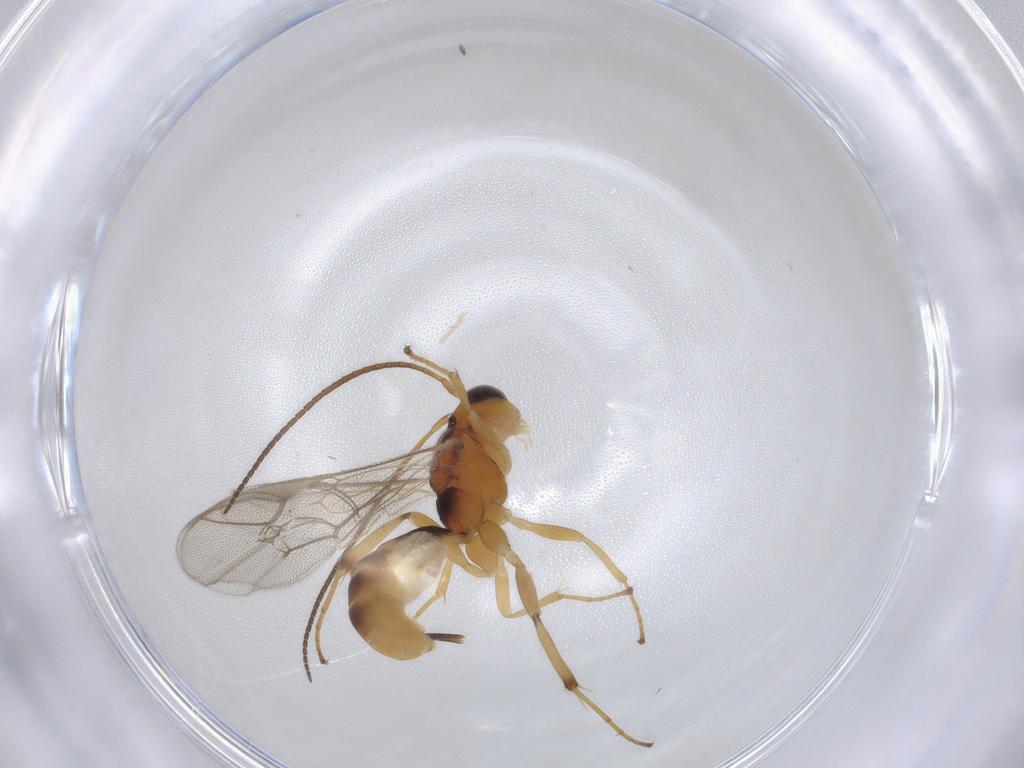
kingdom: Animalia
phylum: Arthropoda
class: Insecta
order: Hymenoptera
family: Ichneumonidae
